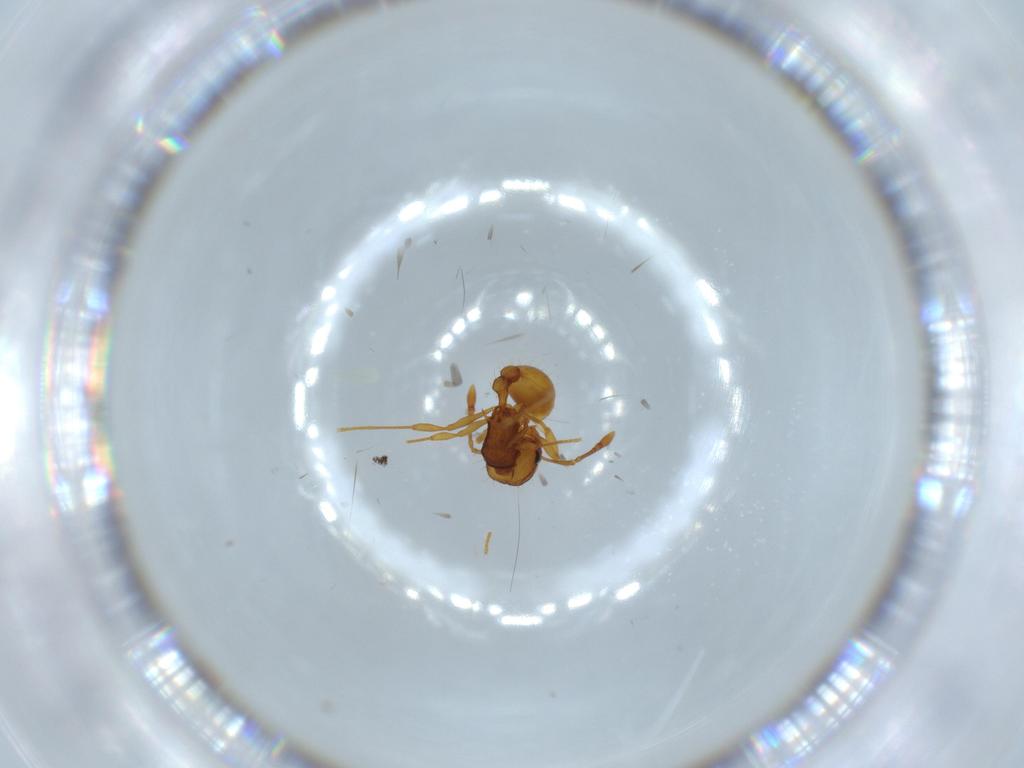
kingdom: Animalia
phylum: Arthropoda
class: Insecta
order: Hymenoptera
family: Formicidae
